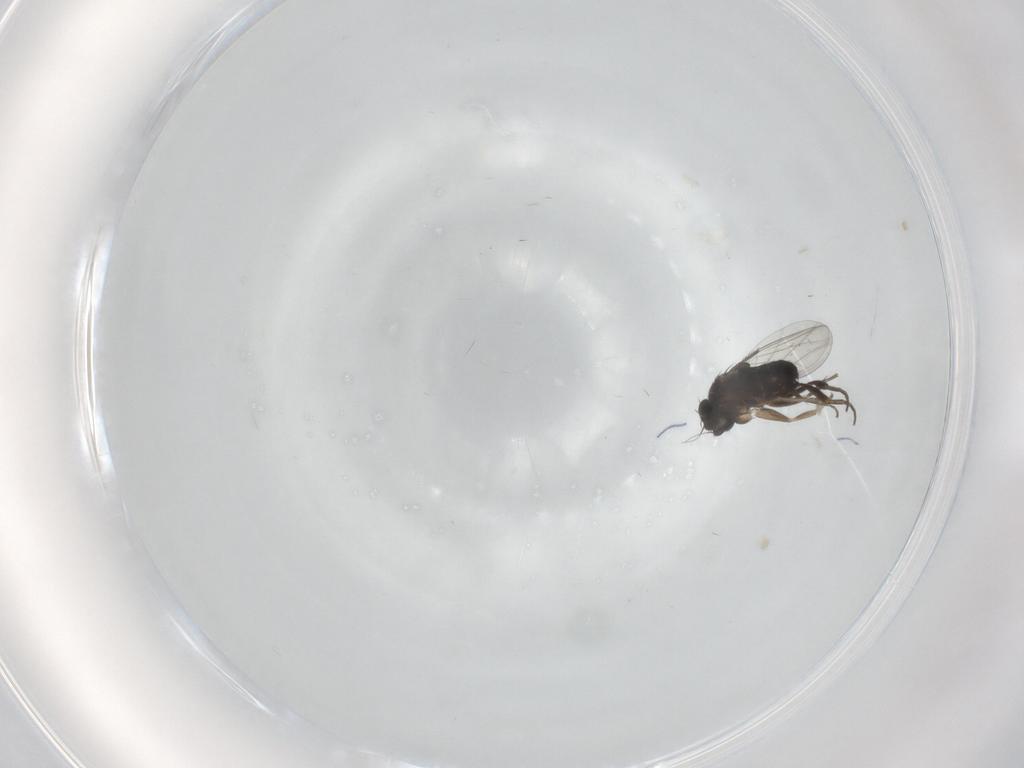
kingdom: Animalia
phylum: Arthropoda
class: Insecta
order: Diptera
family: Phoridae
